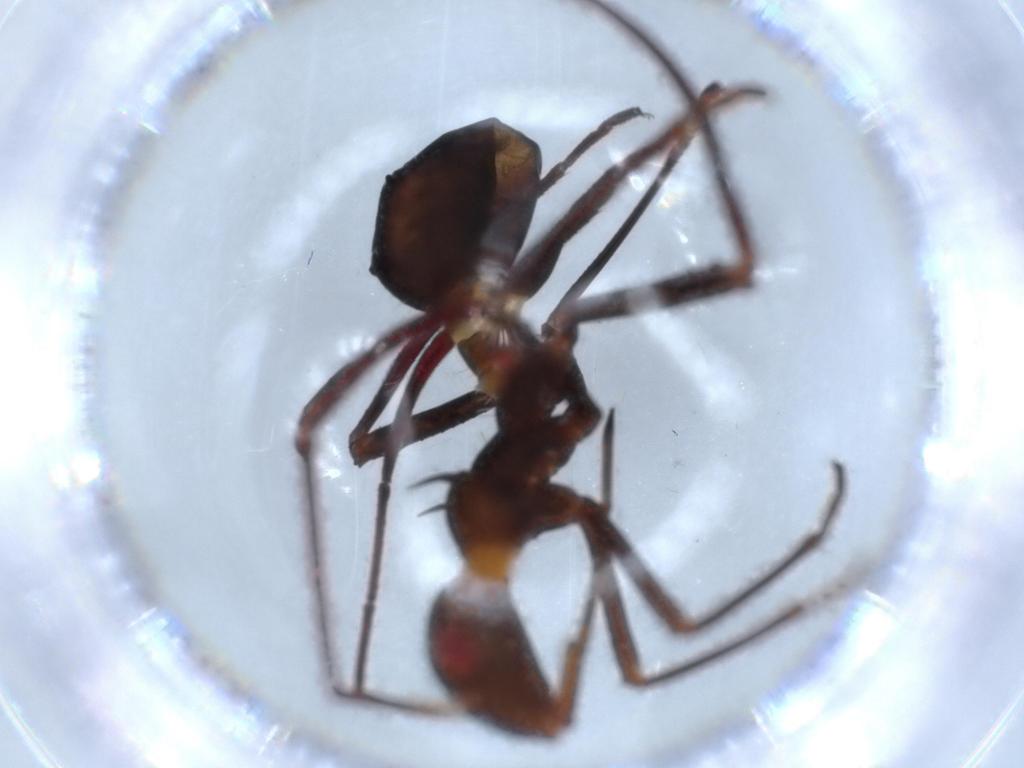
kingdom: Animalia
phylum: Arthropoda
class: Insecta
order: Hemiptera
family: Alydidae
